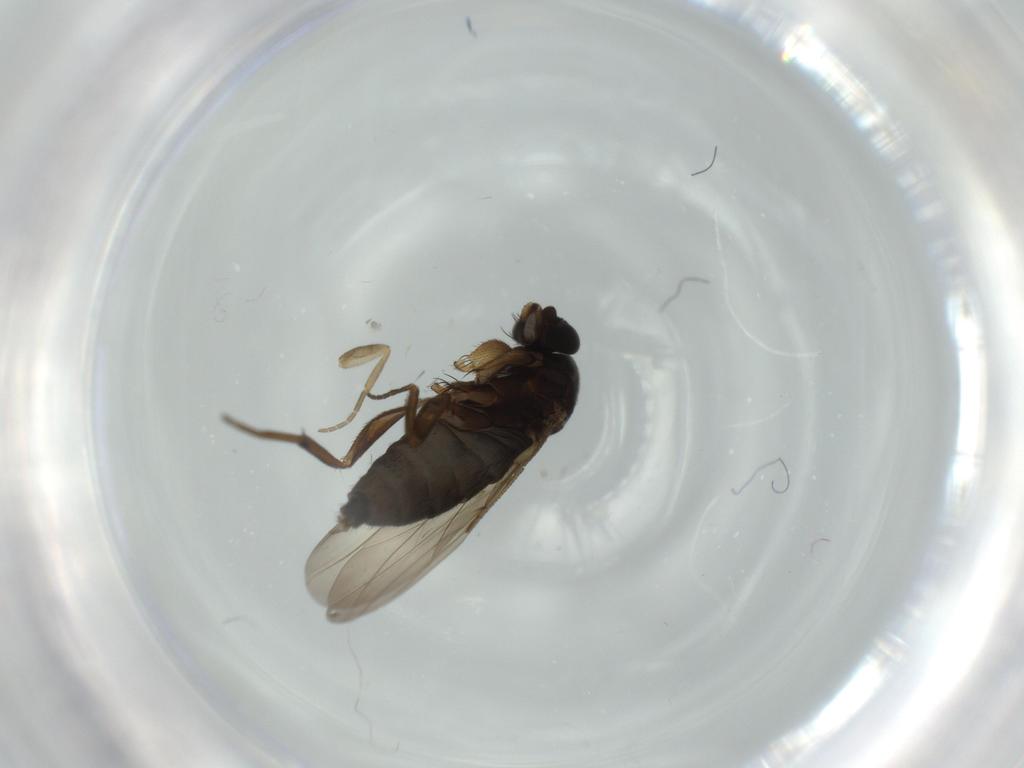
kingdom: Animalia
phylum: Arthropoda
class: Insecta
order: Diptera
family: Phoridae
